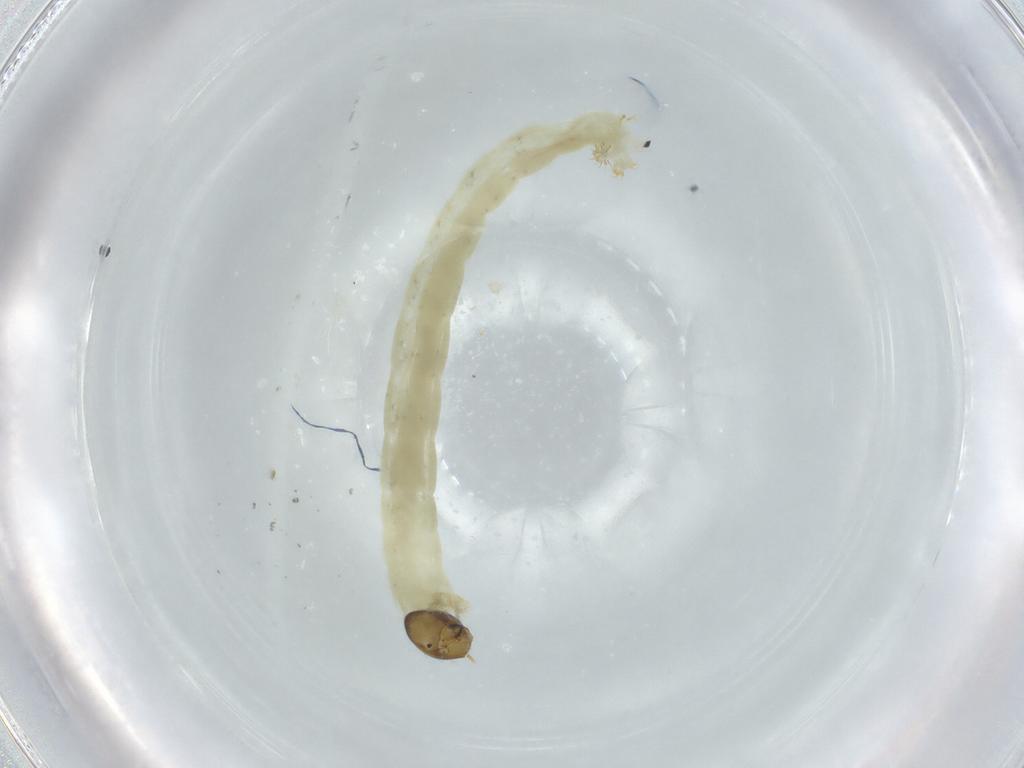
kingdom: Animalia
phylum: Arthropoda
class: Insecta
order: Diptera
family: Chironomidae
